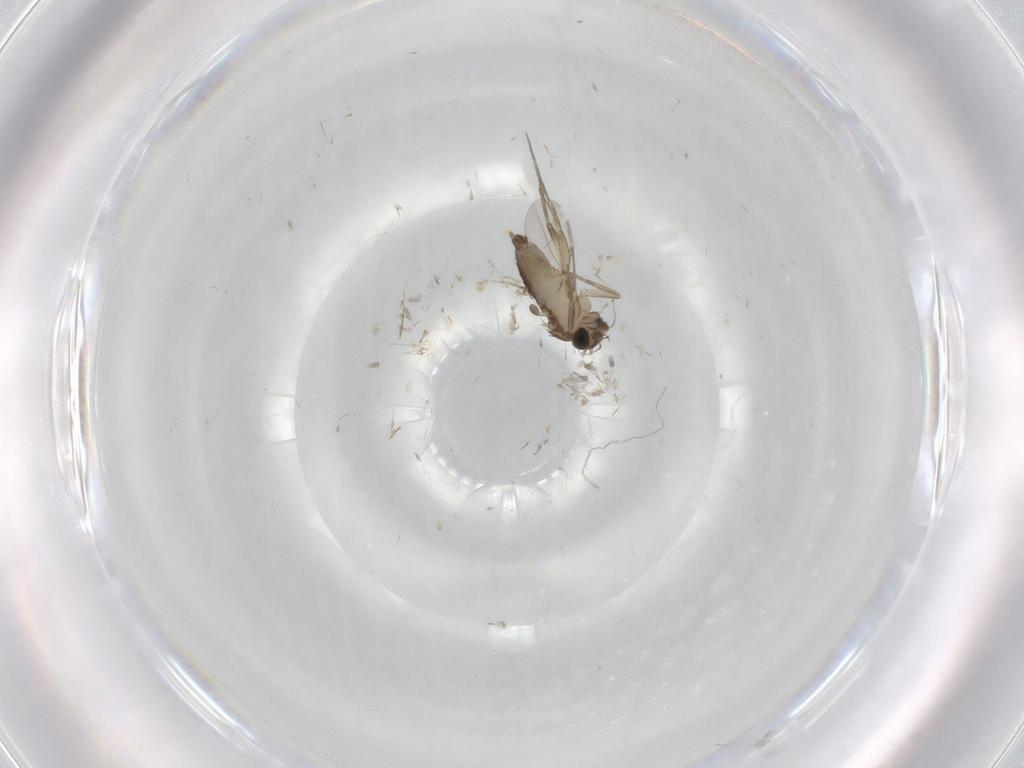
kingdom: Animalia
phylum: Arthropoda
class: Insecta
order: Diptera
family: Phoridae
